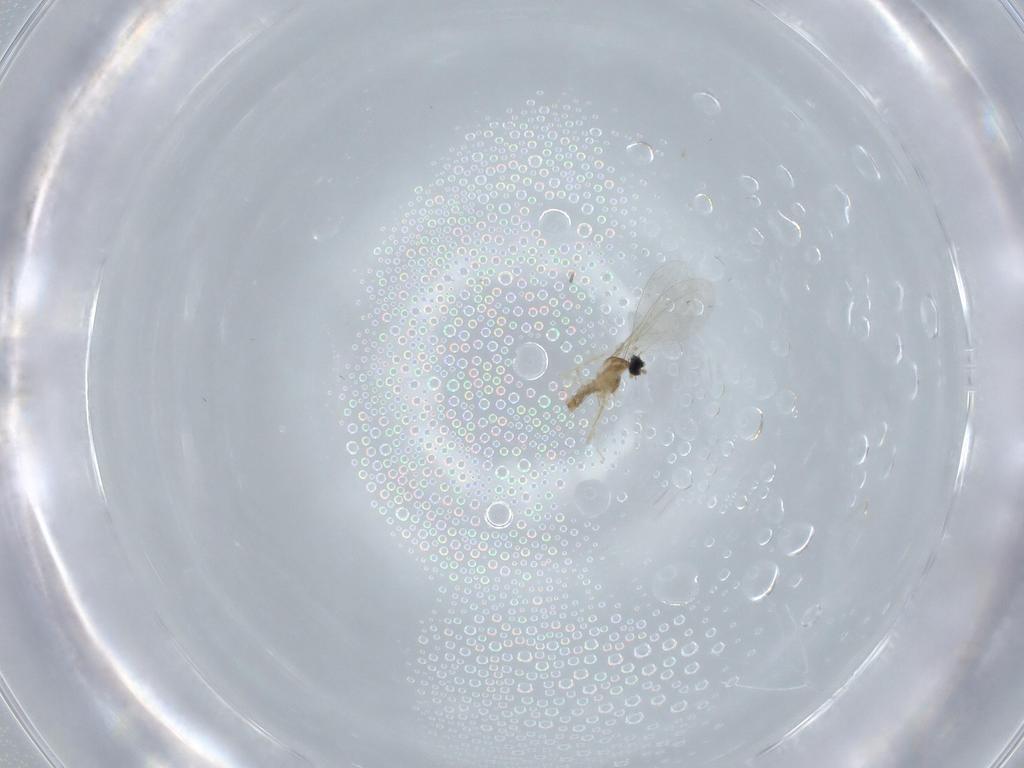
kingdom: Animalia
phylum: Arthropoda
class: Insecta
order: Diptera
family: Cecidomyiidae
